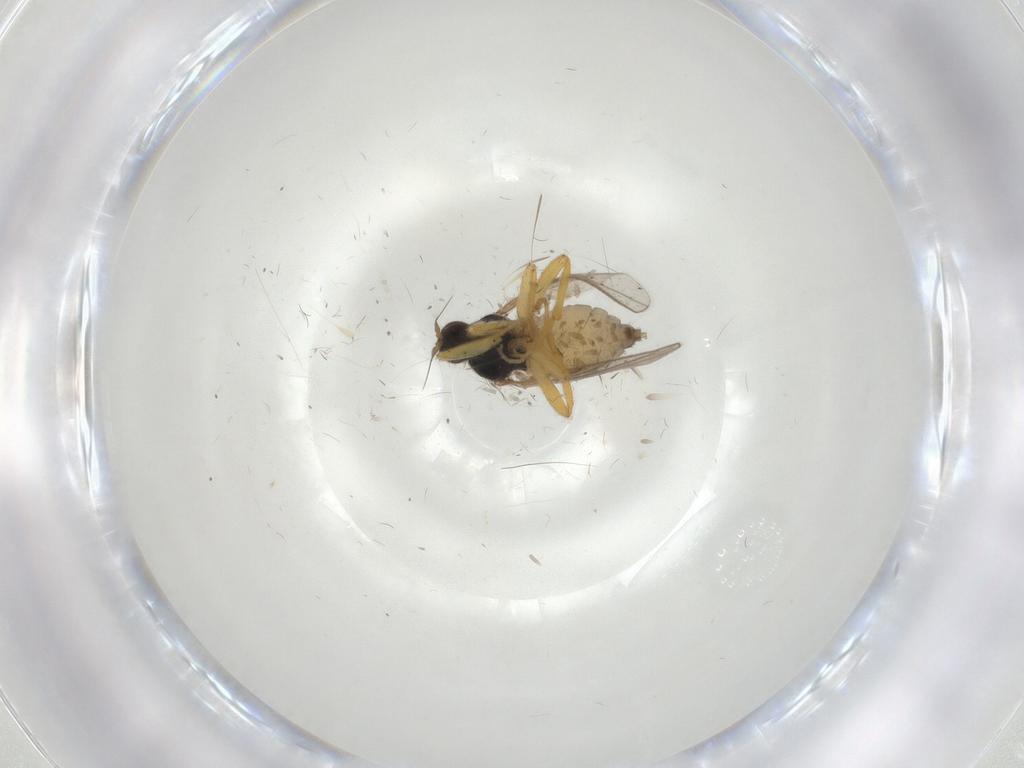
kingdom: Animalia
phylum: Arthropoda
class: Insecta
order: Diptera
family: Hybotidae
